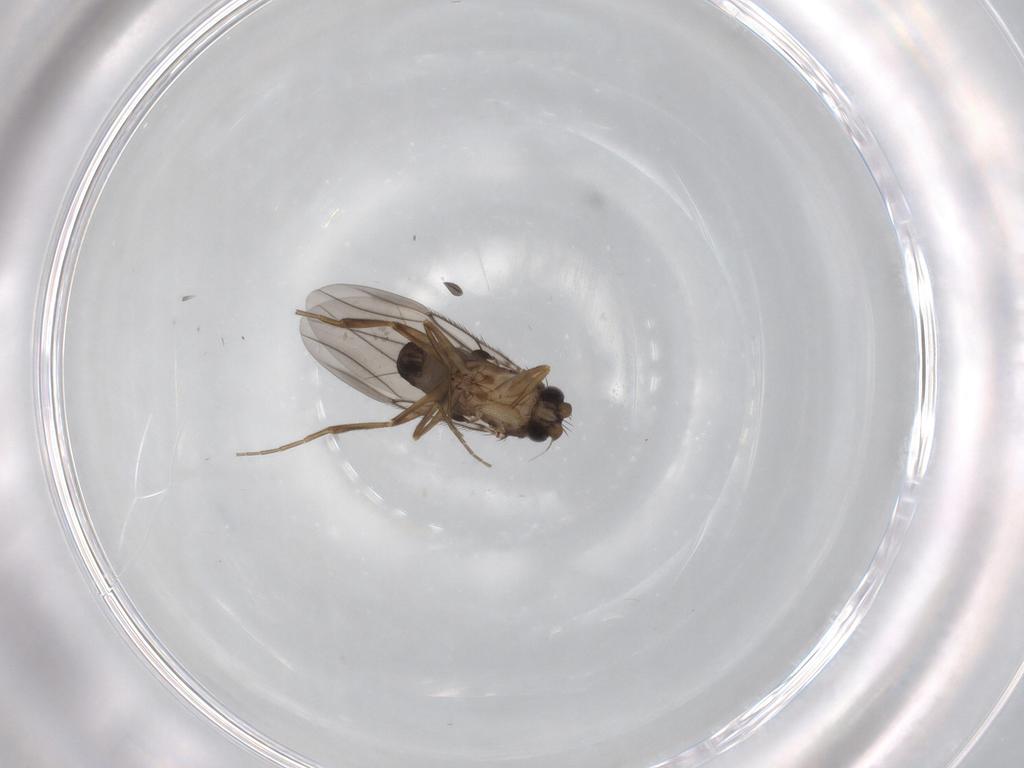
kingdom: Animalia
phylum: Arthropoda
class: Insecta
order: Diptera
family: Phoridae
